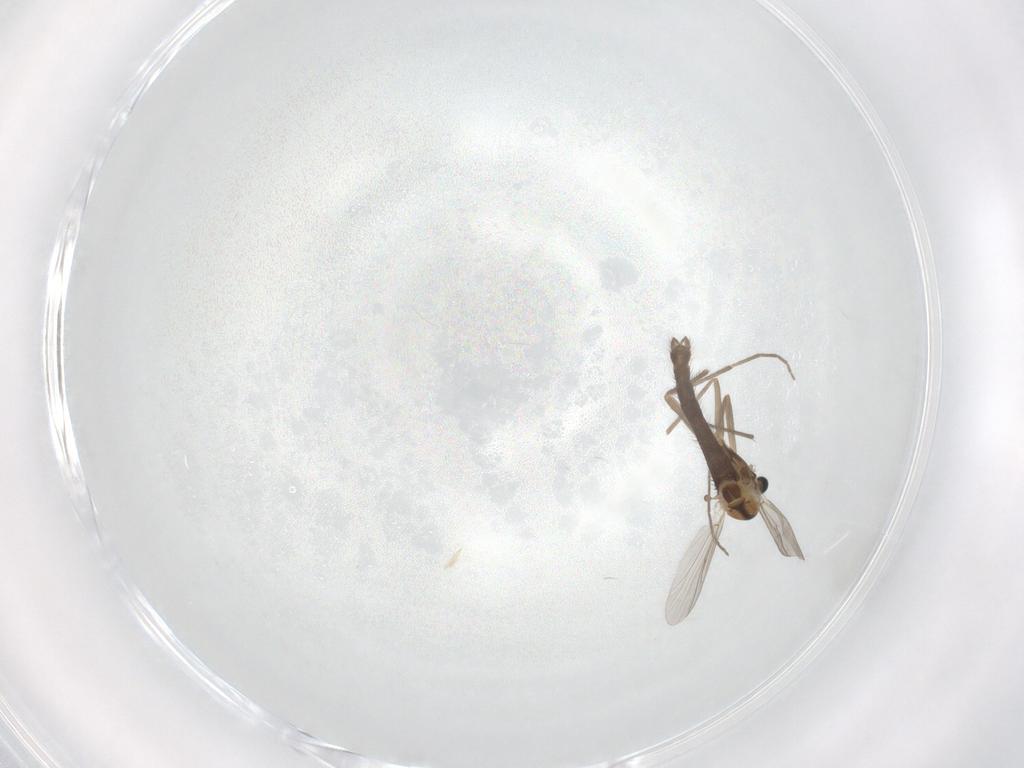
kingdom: Animalia
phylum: Arthropoda
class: Insecta
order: Diptera
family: Chironomidae
